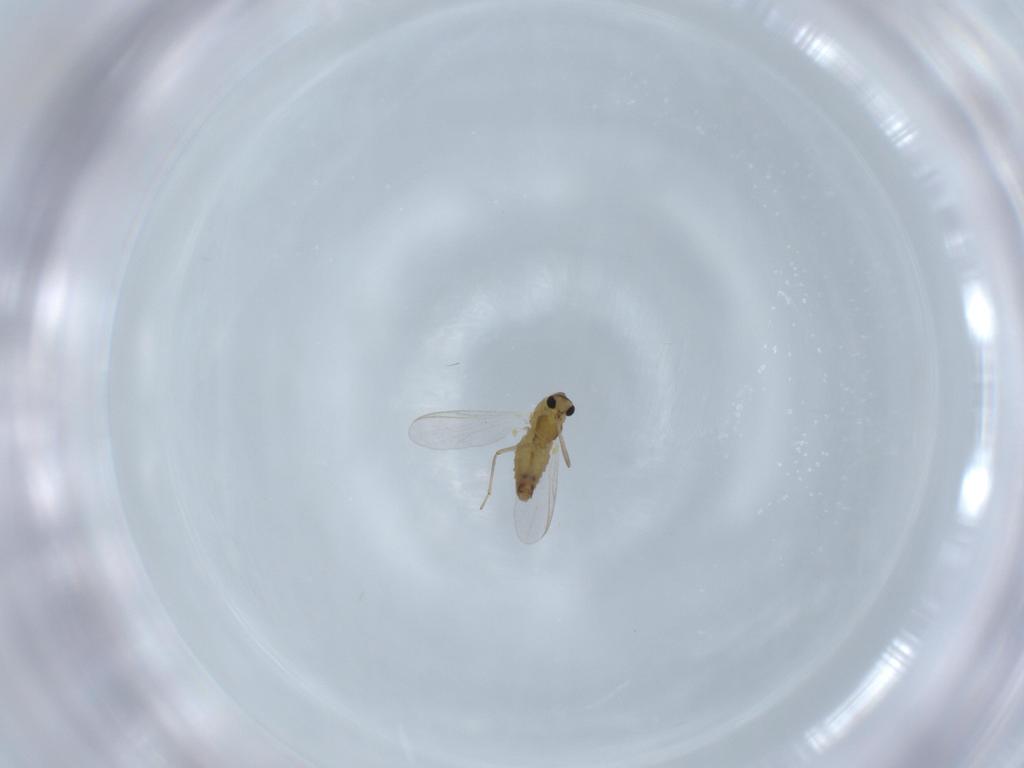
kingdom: Animalia
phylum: Arthropoda
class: Insecta
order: Diptera
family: Chironomidae
